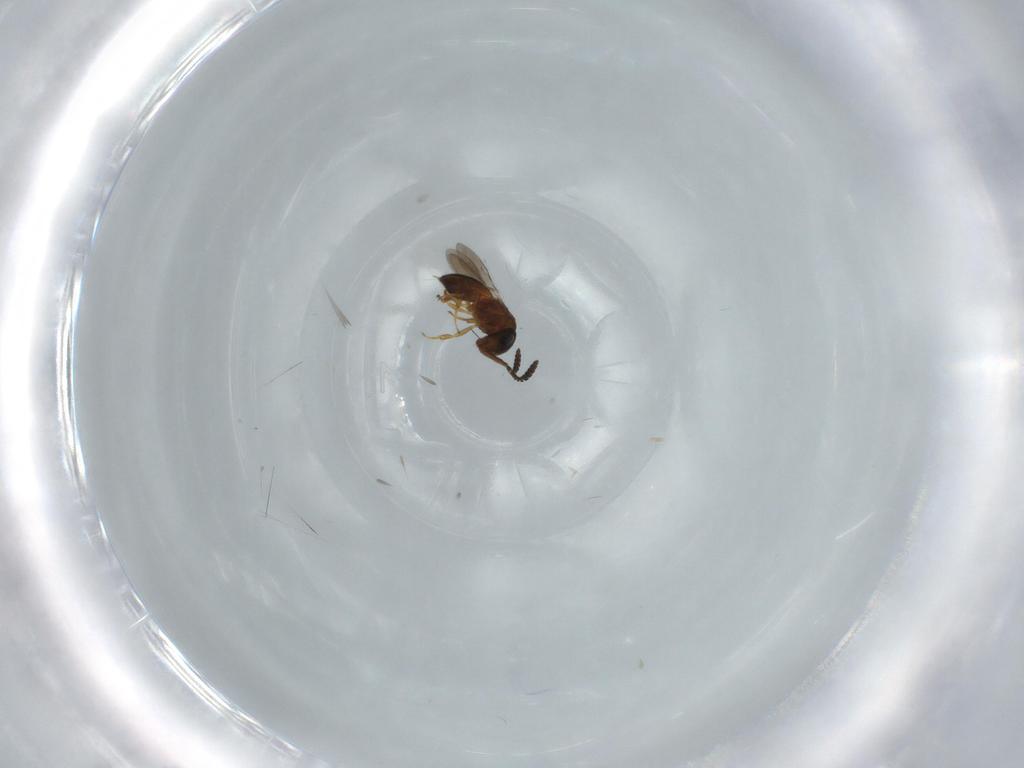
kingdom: Animalia
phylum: Arthropoda
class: Insecta
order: Hymenoptera
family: Scelionidae
